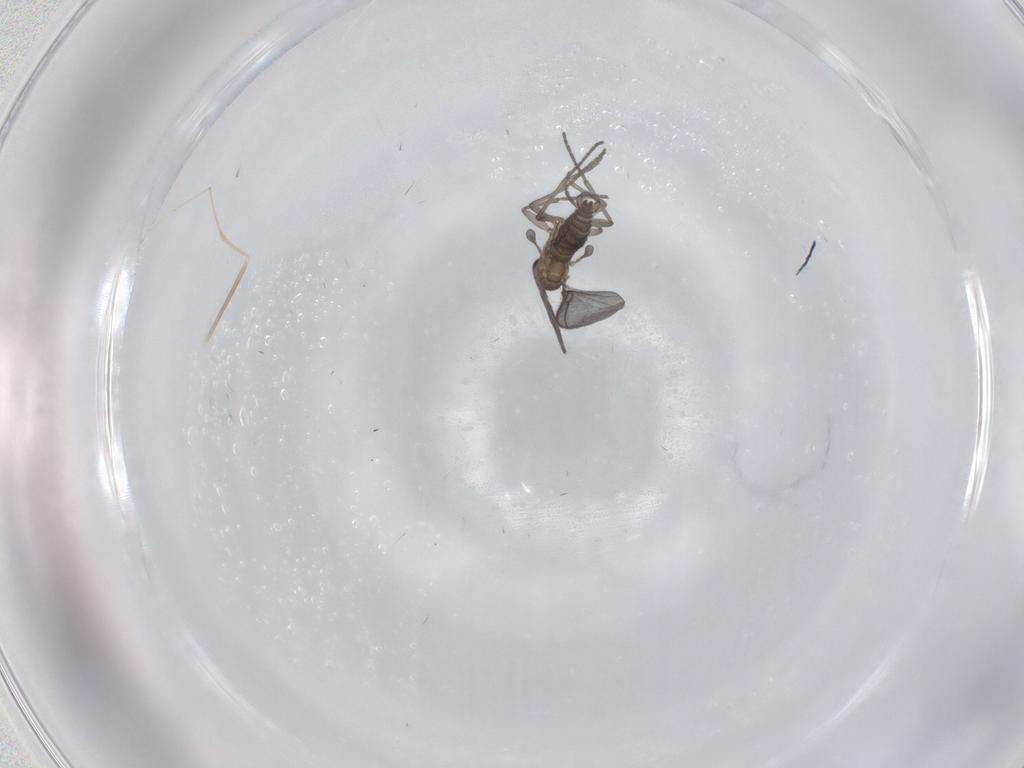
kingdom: Animalia
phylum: Arthropoda
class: Insecta
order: Diptera
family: Sciaridae
